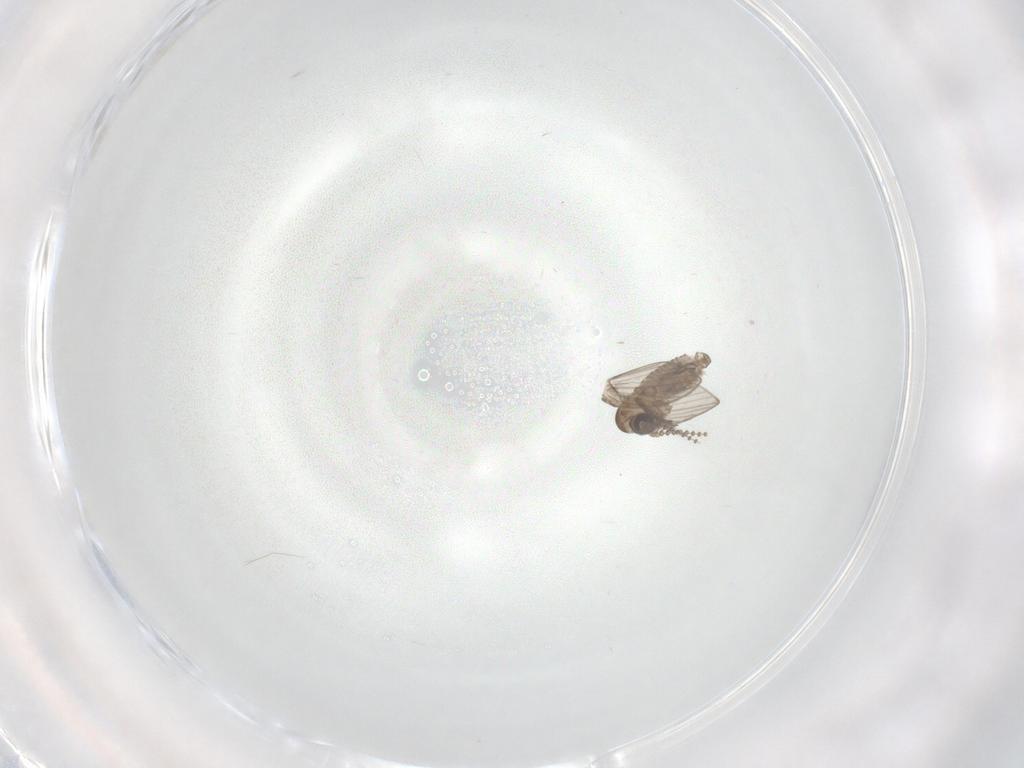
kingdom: Animalia
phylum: Arthropoda
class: Insecta
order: Diptera
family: Psychodidae
